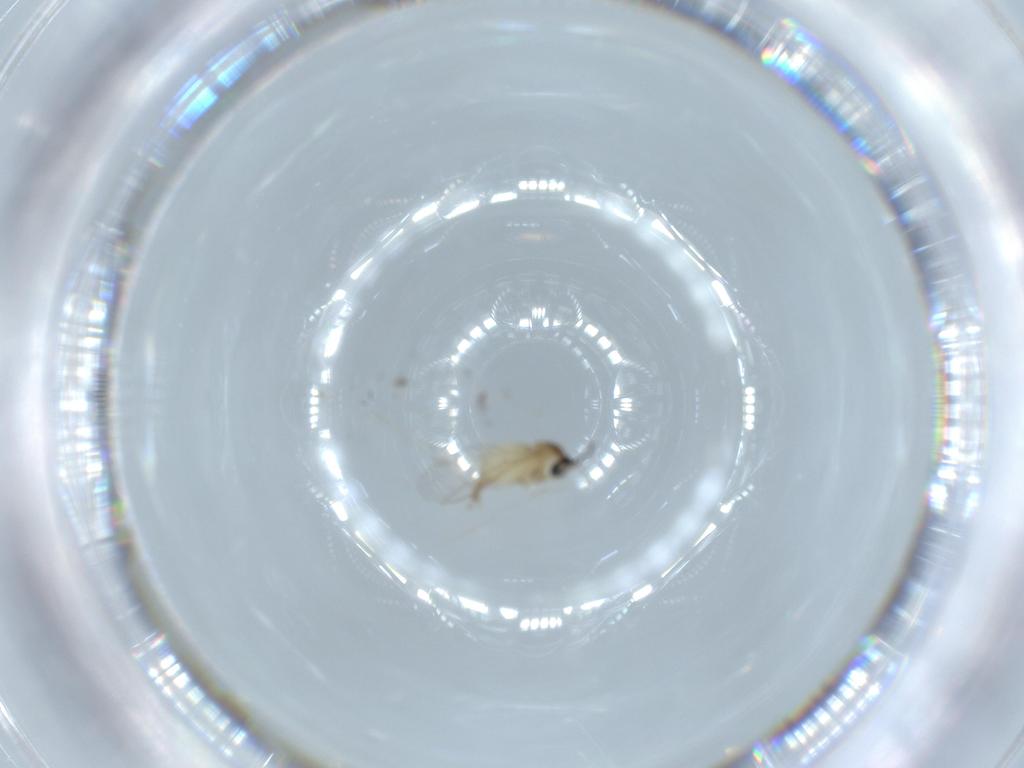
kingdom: Animalia
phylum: Arthropoda
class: Insecta
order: Diptera
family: Cecidomyiidae
